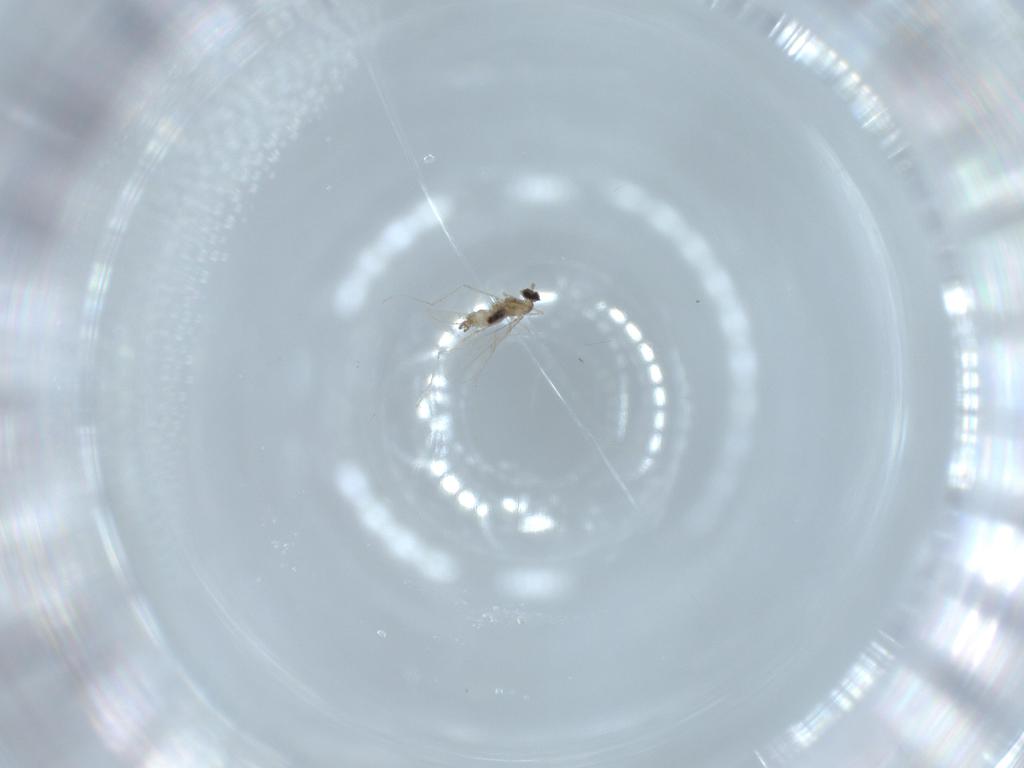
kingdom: Animalia
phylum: Arthropoda
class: Insecta
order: Diptera
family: Cecidomyiidae
